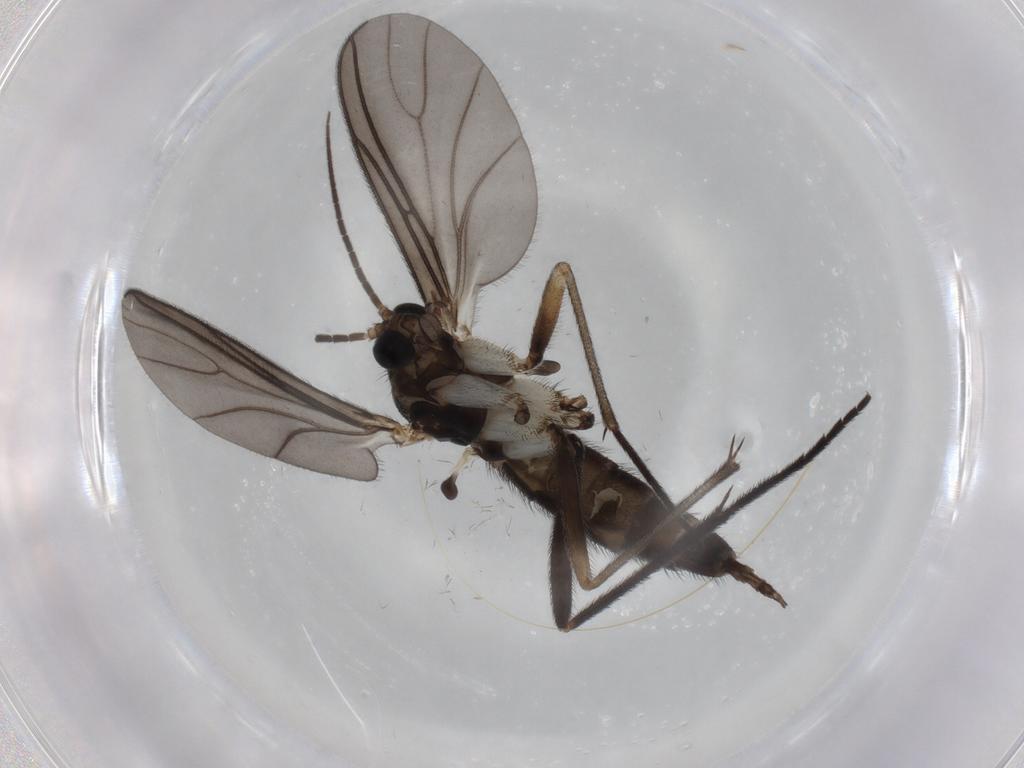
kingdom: Animalia
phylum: Arthropoda
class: Insecta
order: Diptera
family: Sciaridae
